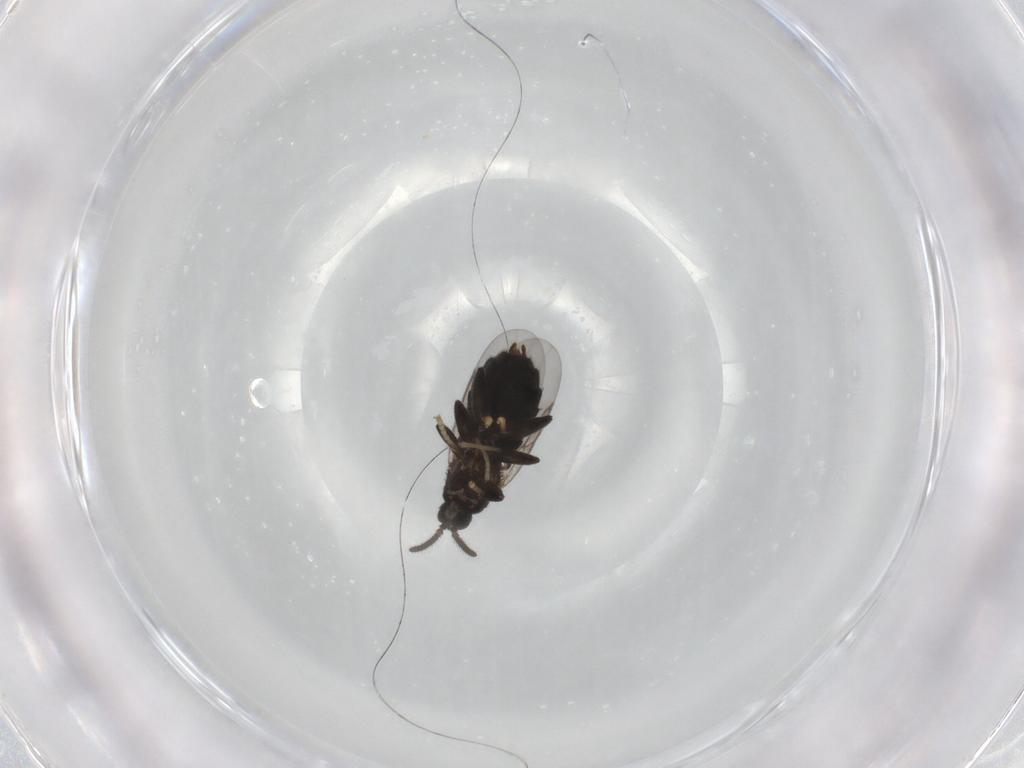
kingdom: Animalia
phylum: Arthropoda
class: Insecta
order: Diptera
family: Scatopsidae
